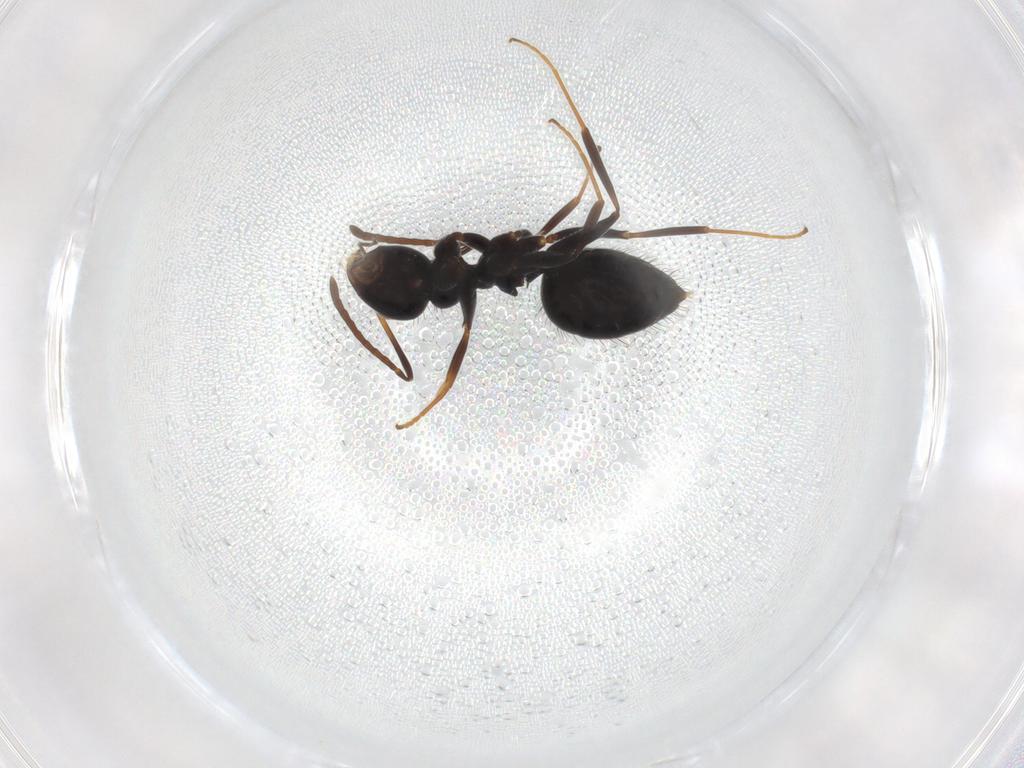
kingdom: Animalia
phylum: Arthropoda
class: Insecta
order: Hymenoptera
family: Formicidae
